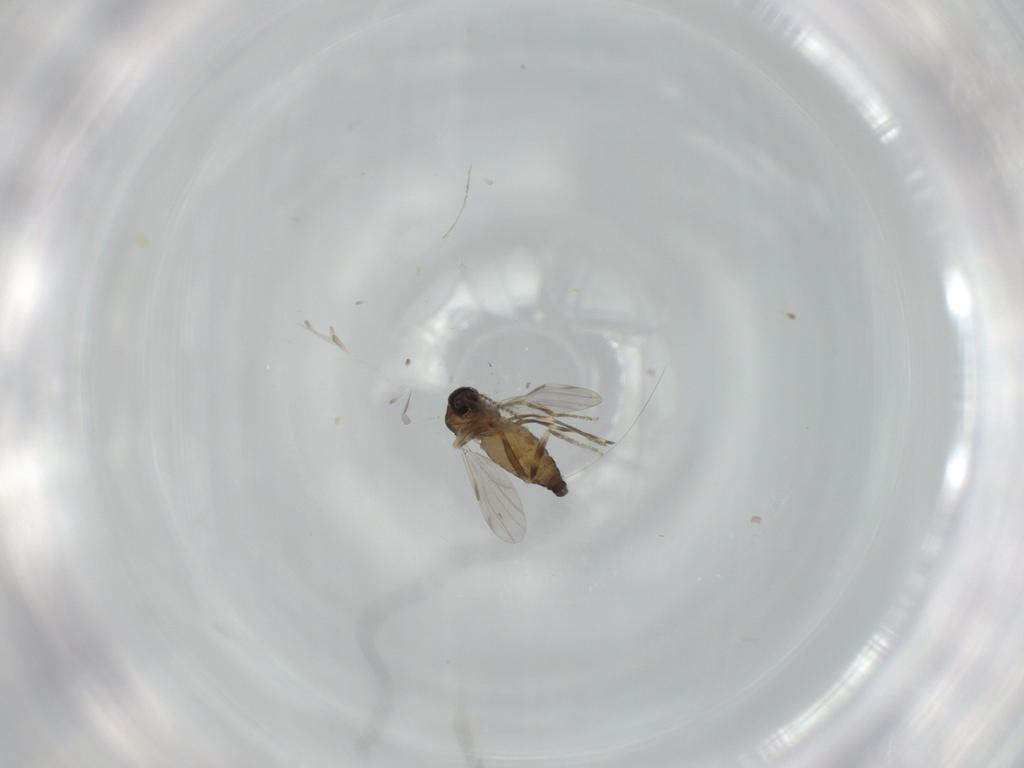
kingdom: Animalia
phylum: Arthropoda
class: Insecta
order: Diptera
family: Ceratopogonidae
